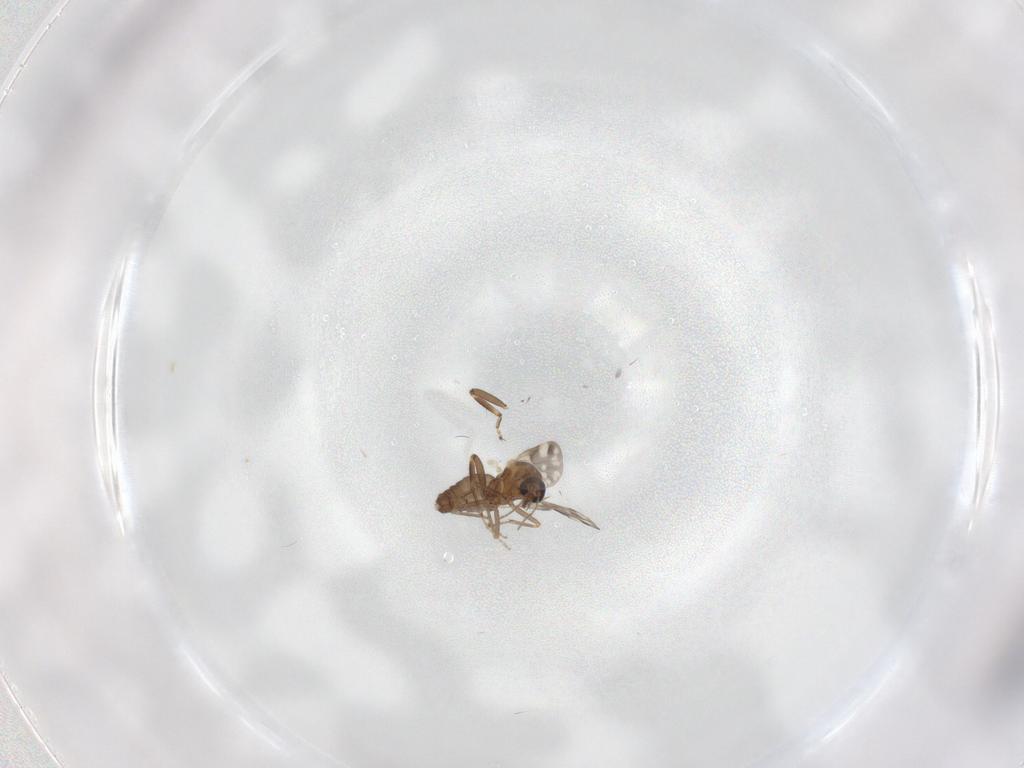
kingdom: Animalia
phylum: Arthropoda
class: Insecta
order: Diptera
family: Ceratopogonidae
